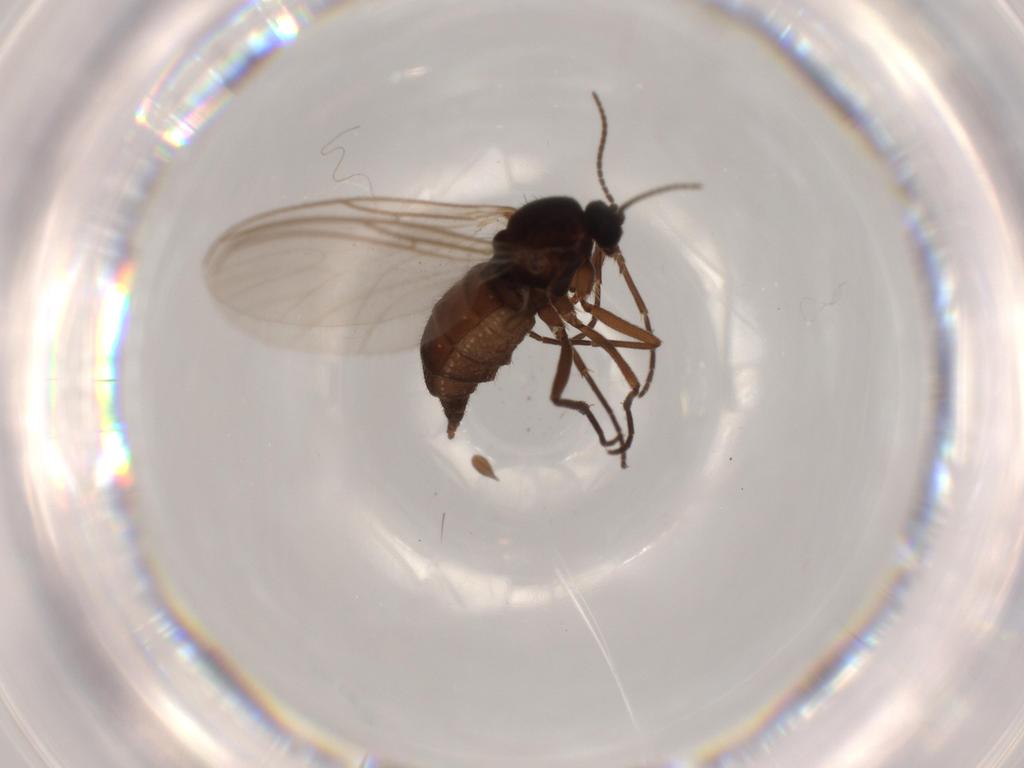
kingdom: Animalia
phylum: Arthropoda
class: Insecta
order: Diptera
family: Sciaridae
